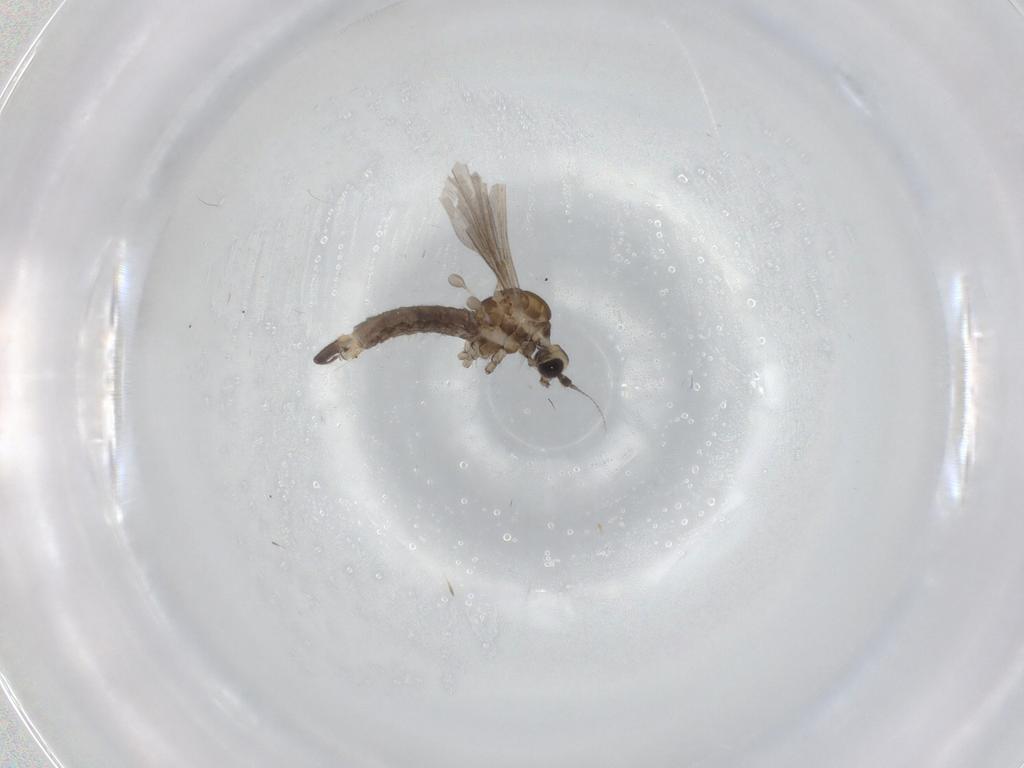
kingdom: Animalia
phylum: Arthropoda
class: Insecta
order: Diptera
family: Limoniidae
